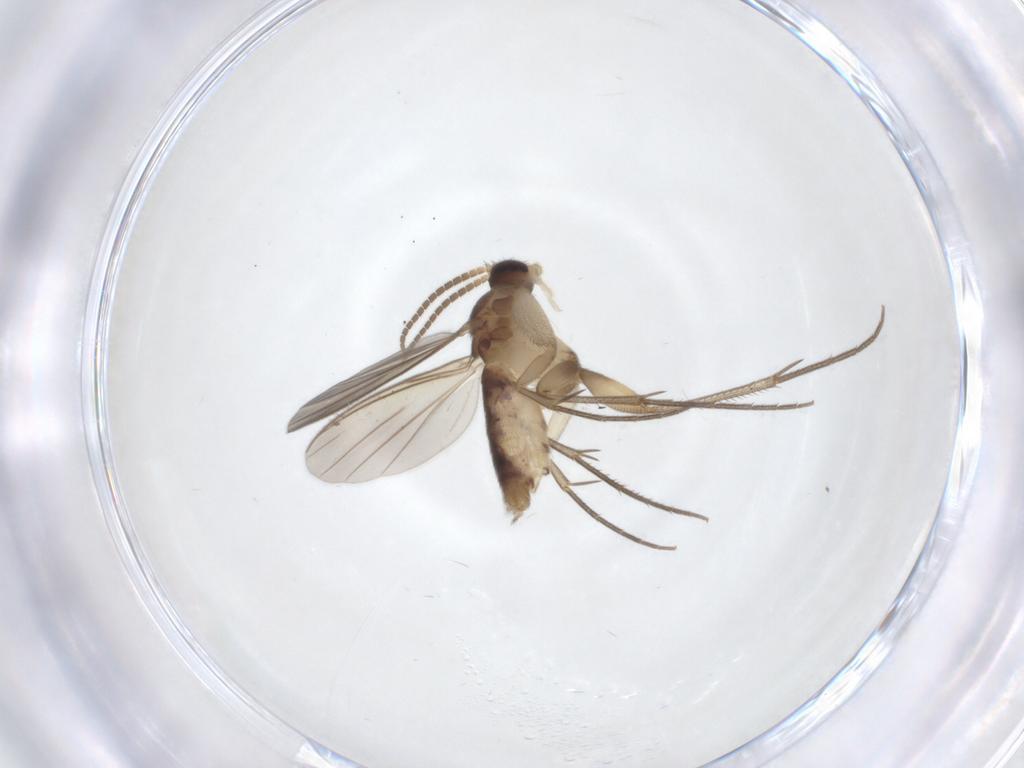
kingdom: Animalia
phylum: Arthropoda
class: Insecta
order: Diptera
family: Mycetophilidae
